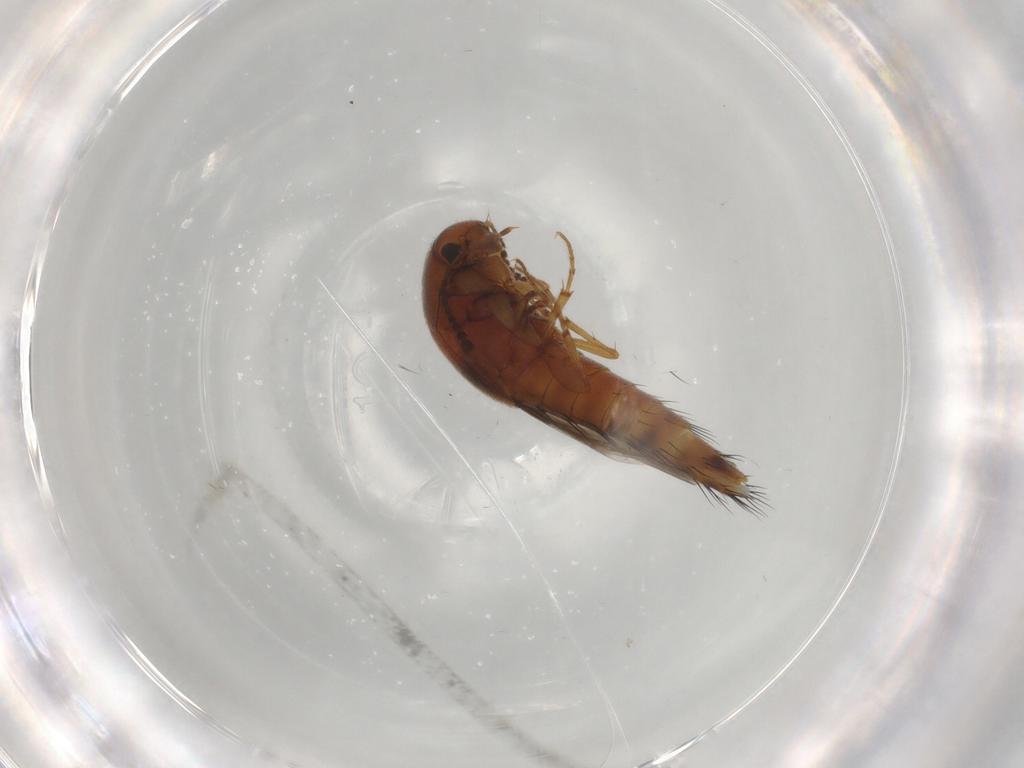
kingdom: Animalia
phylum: Arthropoda
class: Insecta
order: Coleoptera
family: Staphylinidae
